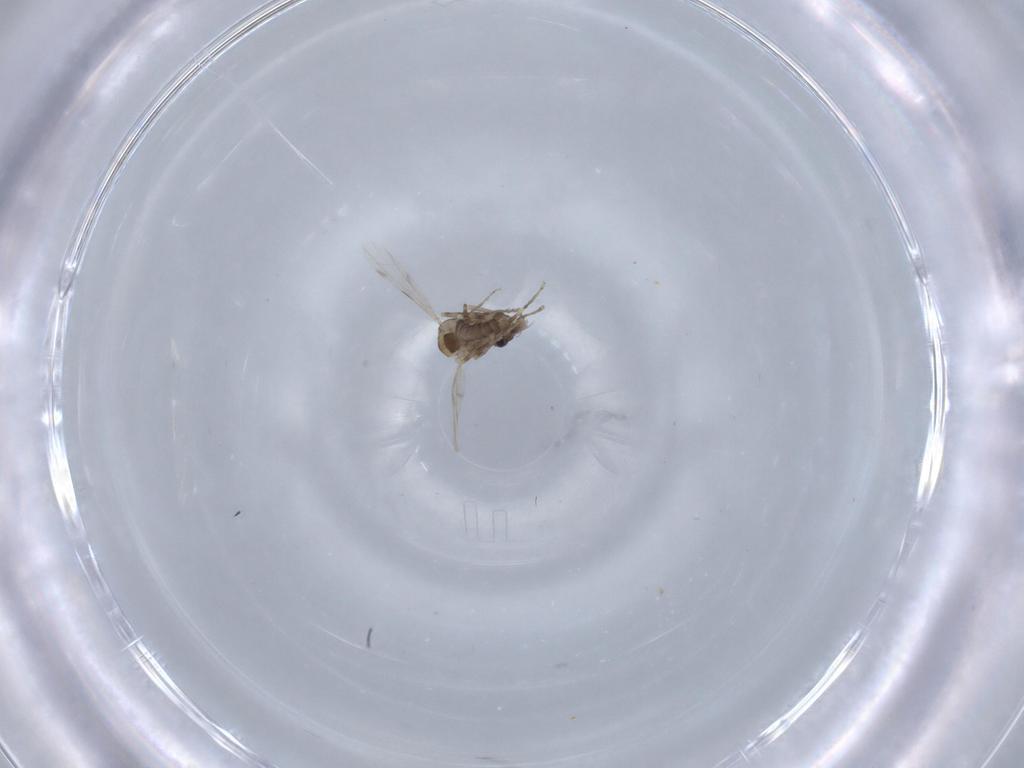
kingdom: Animalia
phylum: Arthropoda
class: Insecta
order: Diptera
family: Ceratopogonidae
